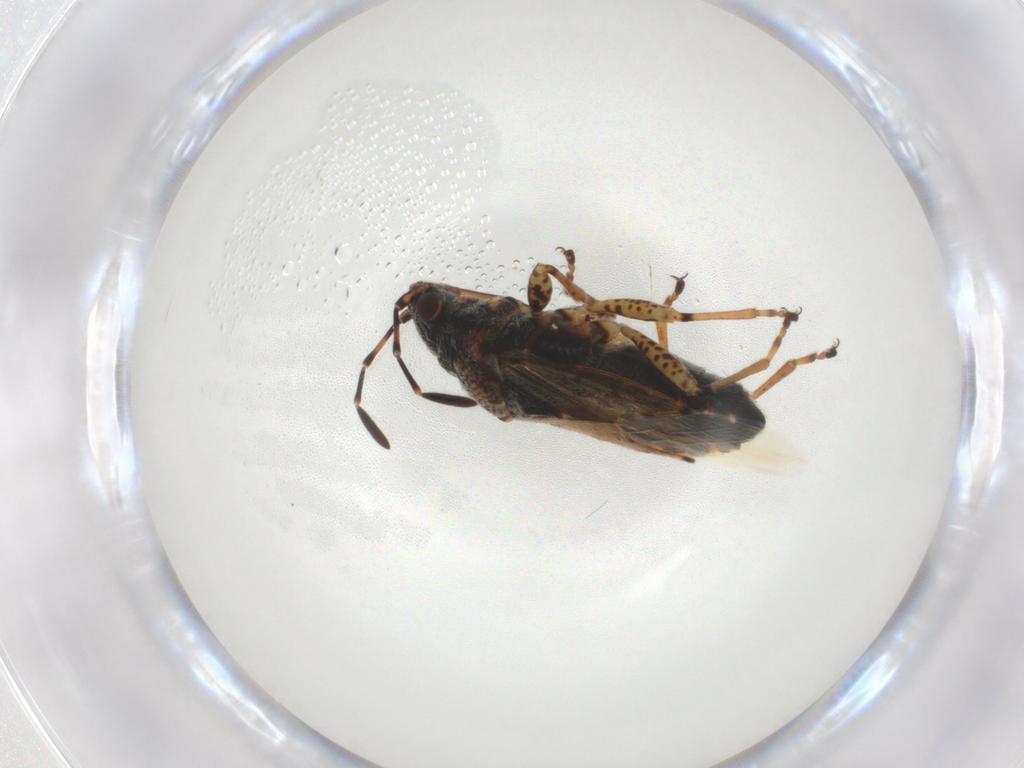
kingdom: Animalia
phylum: Arthropoda
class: Insecta
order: Hemiptera
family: Lygaeidae
